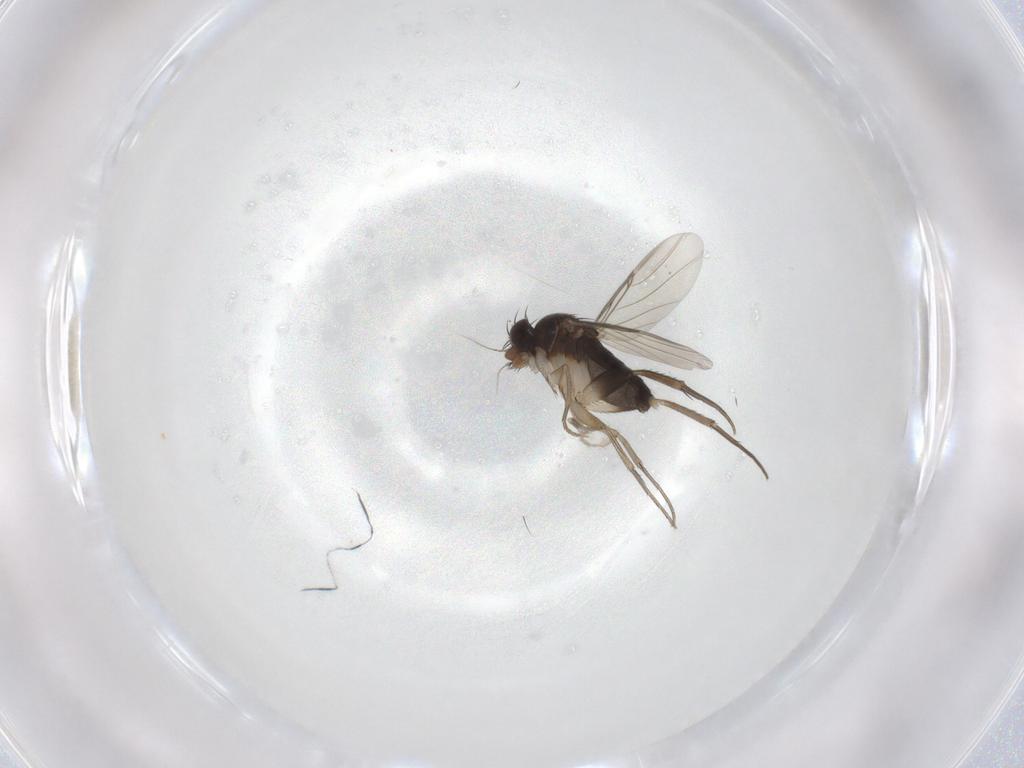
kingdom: Animalia
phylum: Arthropoda
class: Insecta
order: Diptera
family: Drosophilidae
